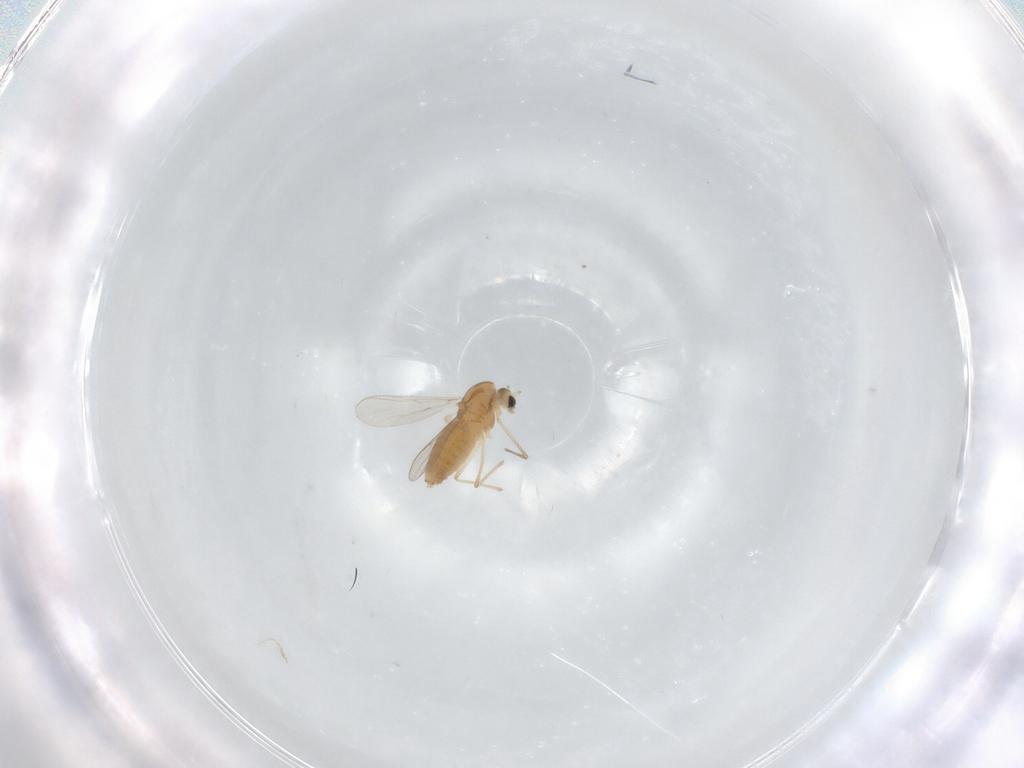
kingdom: Animalia
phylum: Arthropoda
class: Insecta
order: Diptera
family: Chironomidae
